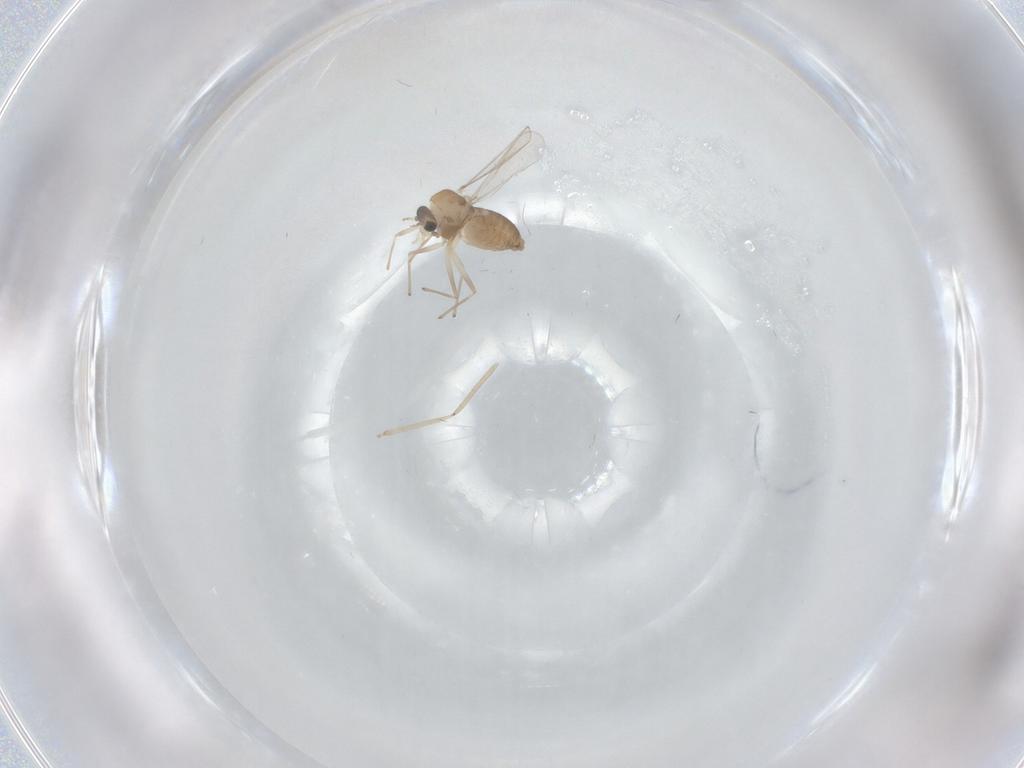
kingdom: Animalia
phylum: Arthropoda
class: Insecta
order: Diptera
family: Chironomidae
